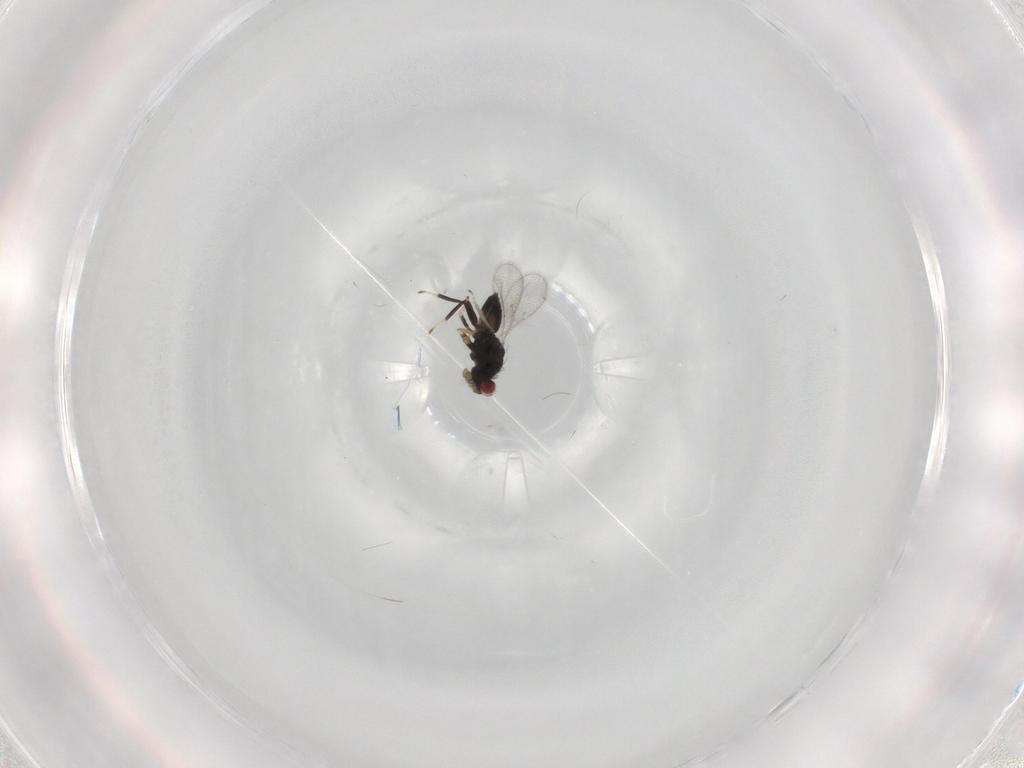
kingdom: Animalia
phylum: Arthropoda
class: Insecta
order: Hymenoptera
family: Eulophidae
